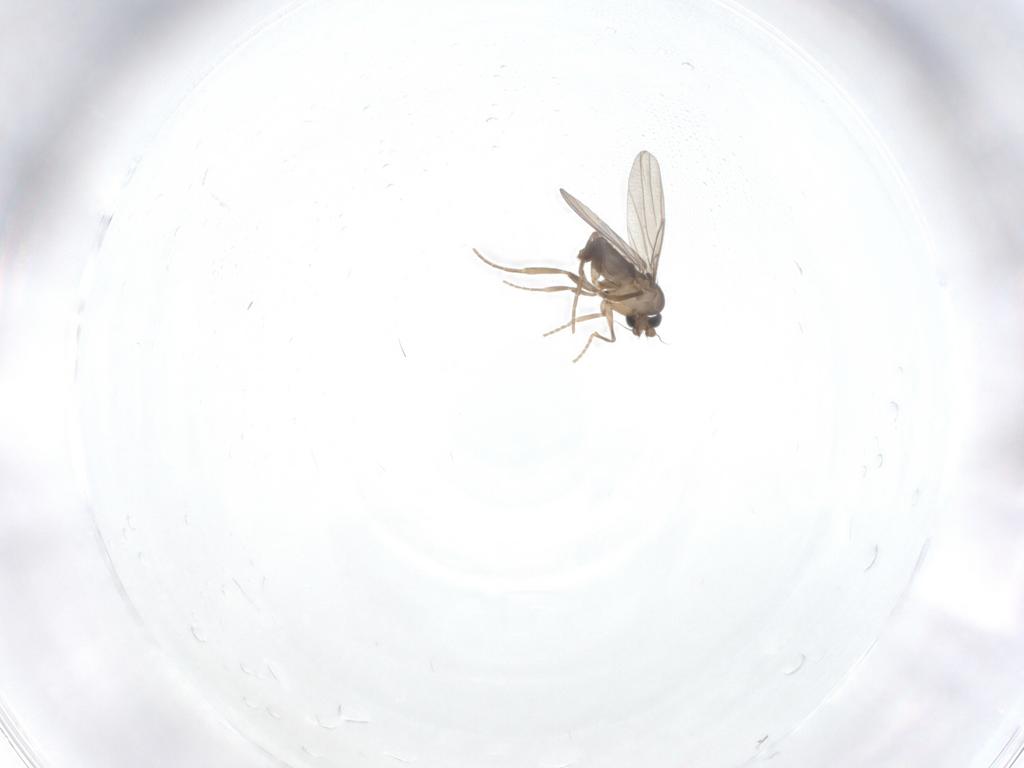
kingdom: Animalia
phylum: Arthropoda
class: Insecta
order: Diptera
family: Phoridae
